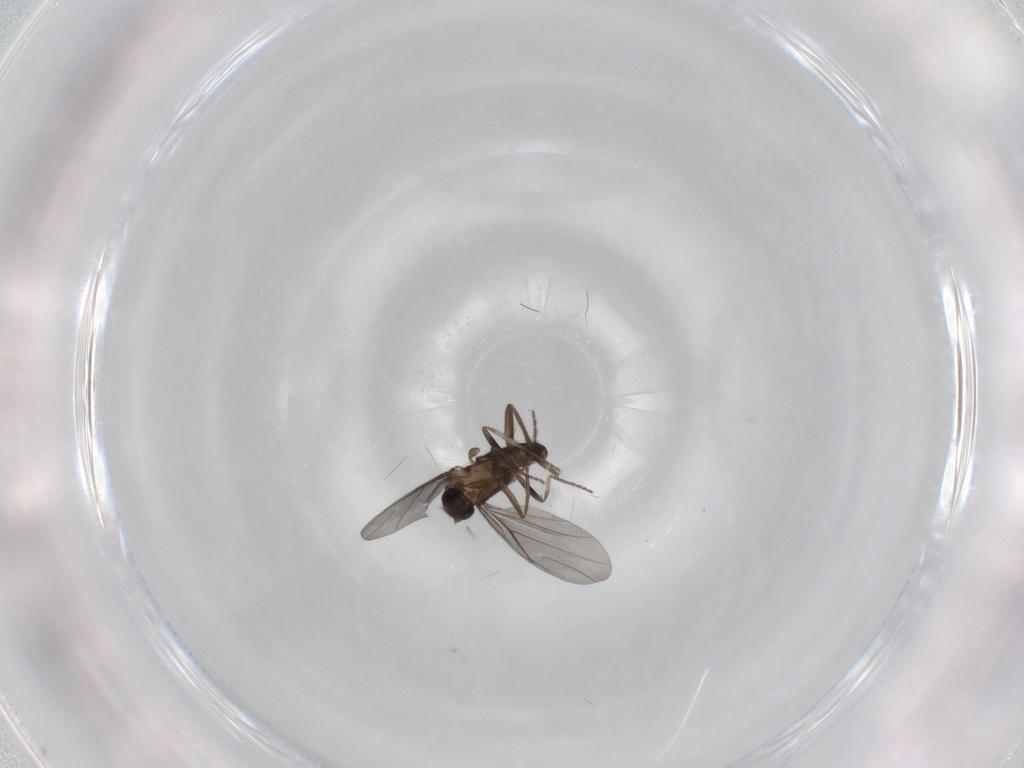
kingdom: Animalia
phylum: Arthropoda
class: Insecta
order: Diptera
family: Phoridae
